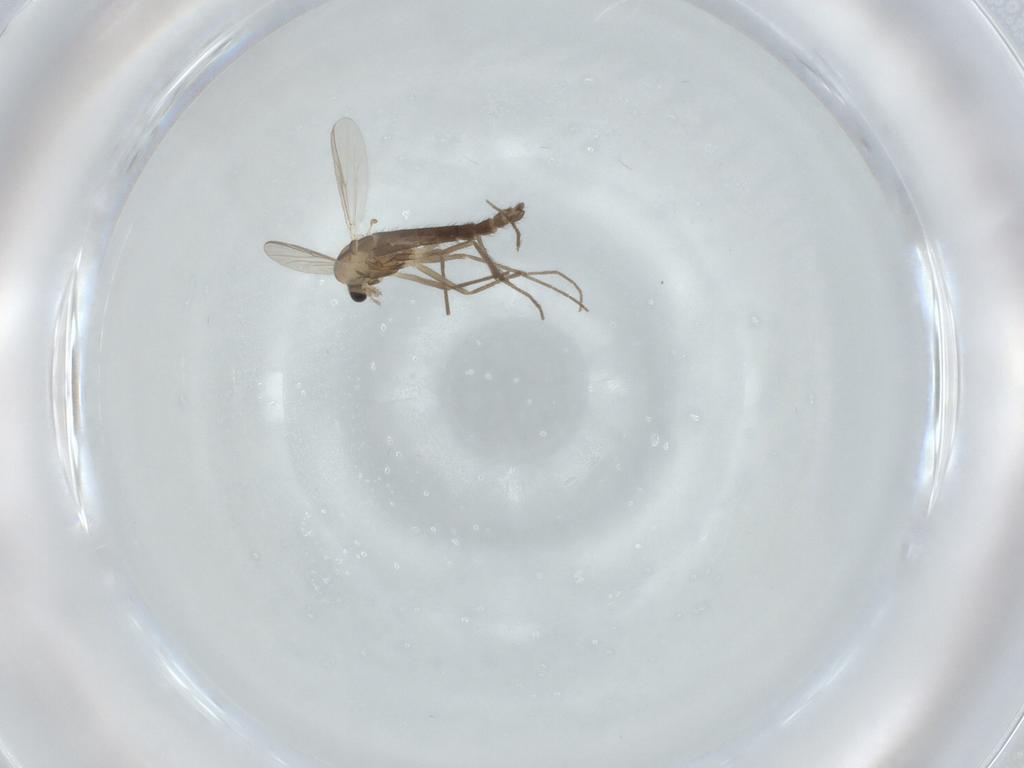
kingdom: Animalia
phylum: Arthropoda
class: Insecta
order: Diptera
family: Chironomidae
